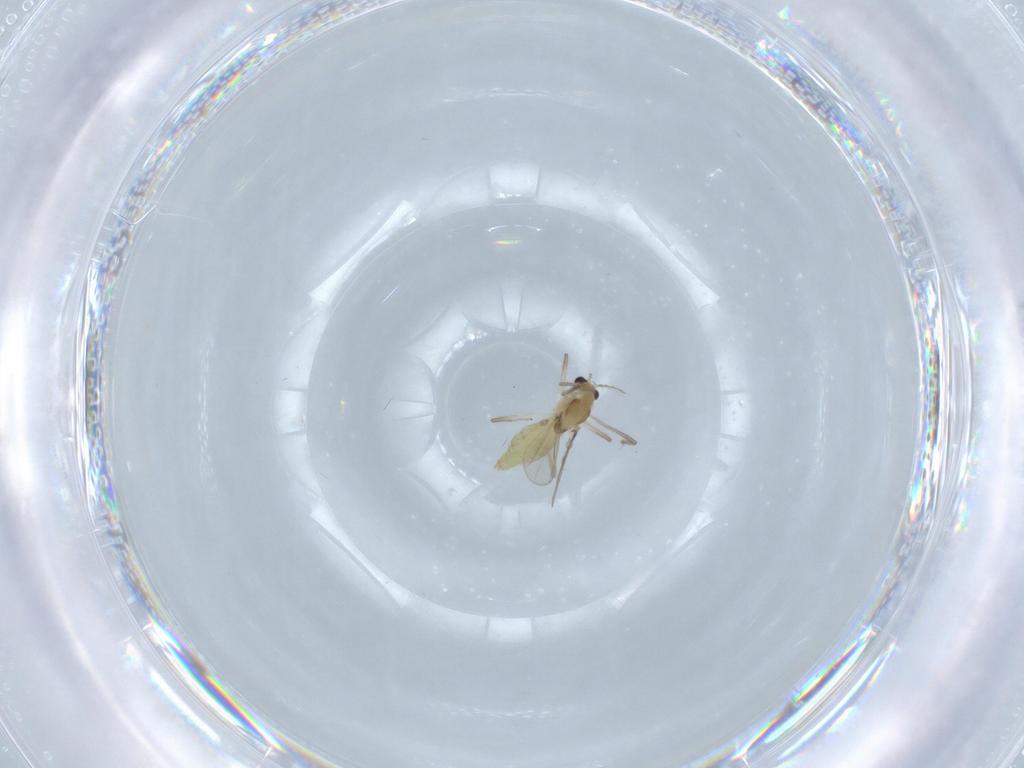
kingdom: Animalia
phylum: Arthropoda
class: Insecta
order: Diptera
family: Chironomidae
